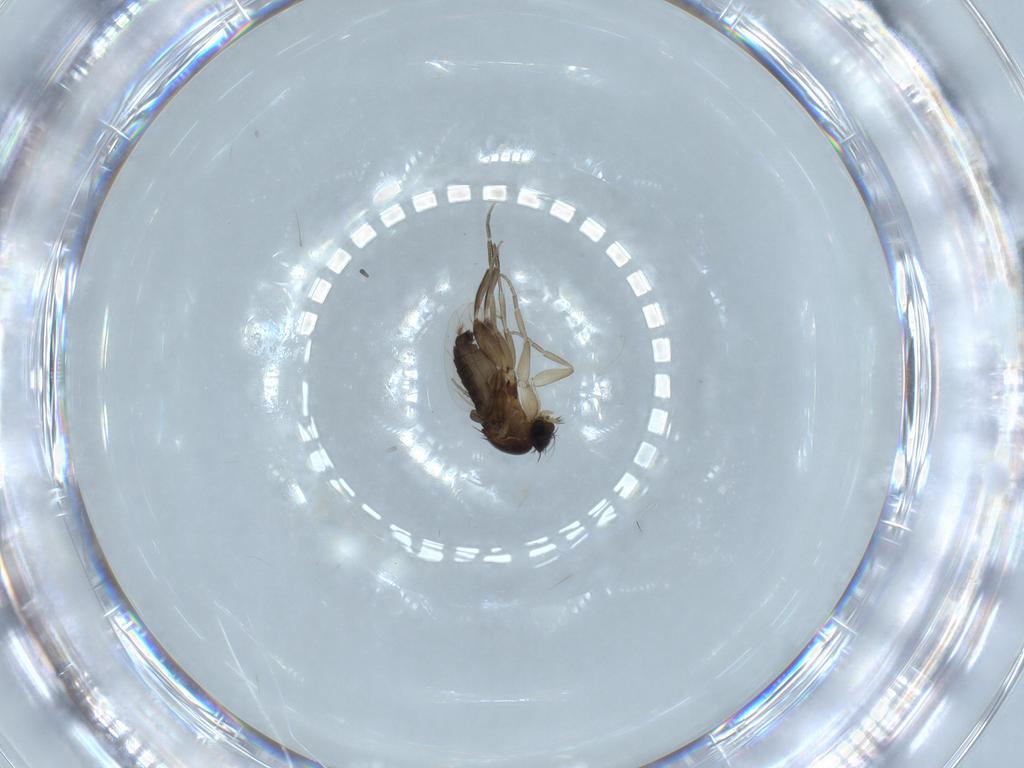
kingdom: Animalia
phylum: Arthropoda
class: Insecta
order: Diptera
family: Phoridae
